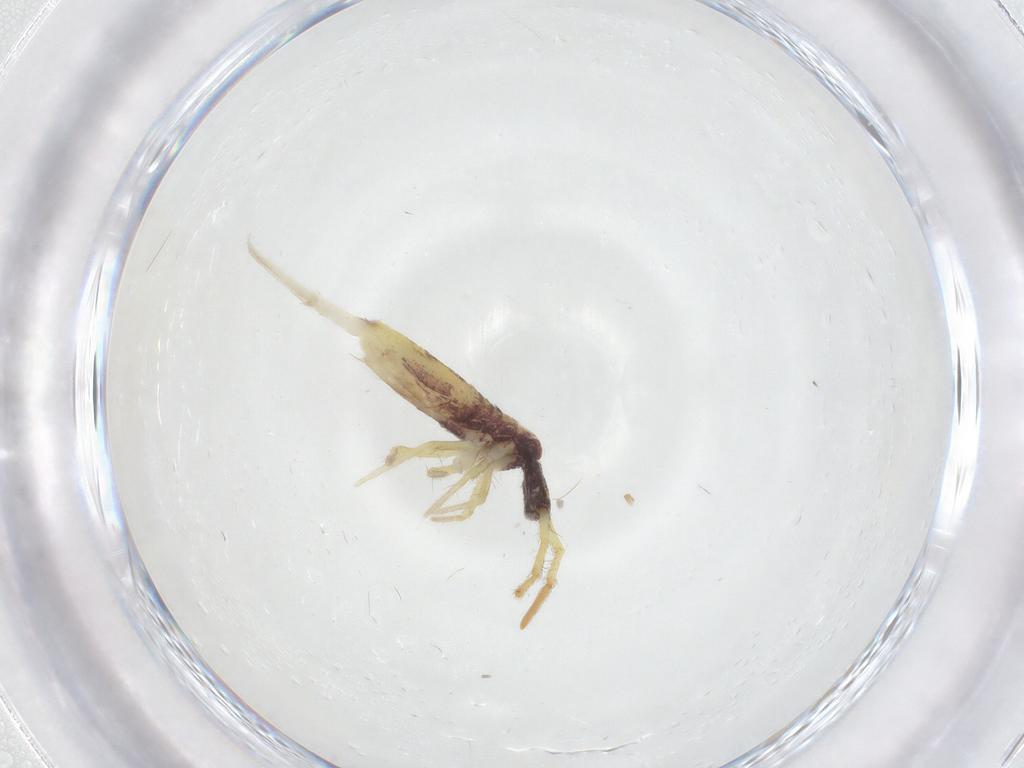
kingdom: Animalia
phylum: Arthropoda
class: Collembola
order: Entomobryomorpha
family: Entomobryidae
